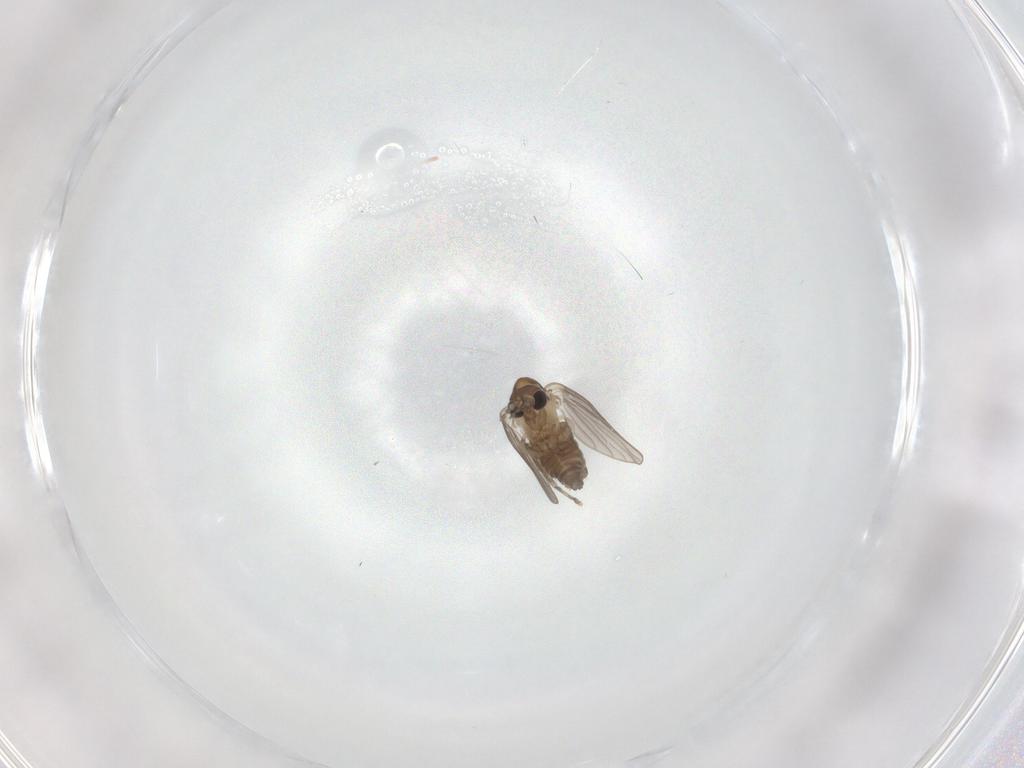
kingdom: Animalia
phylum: Arthropoda
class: Insecta
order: Diptera
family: Psychodidae
